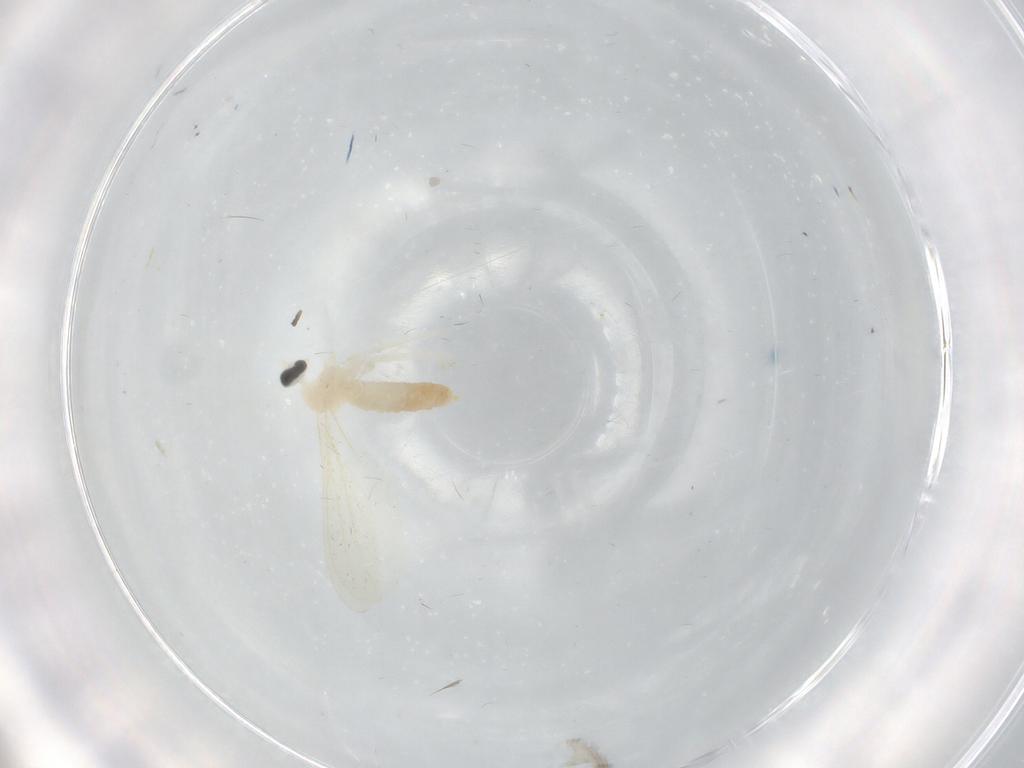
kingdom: Animalia
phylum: Arthropoda
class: Insecta
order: Diptera
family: Cecidomyiidae
